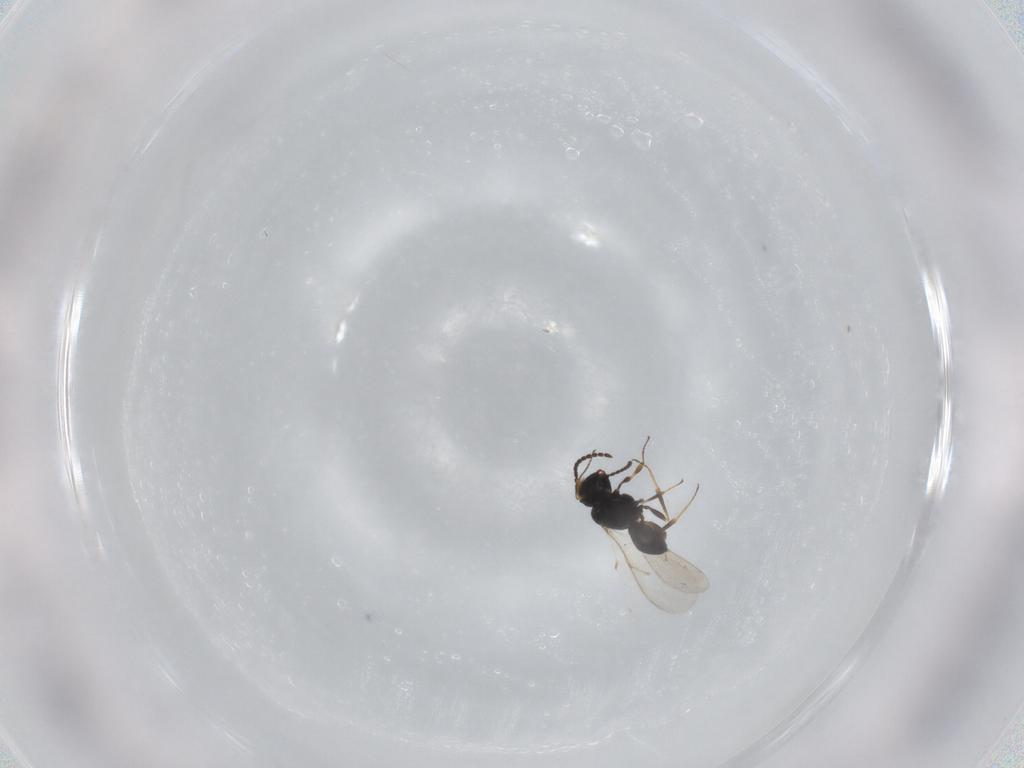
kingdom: Animalia
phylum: Arthropoda
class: Insecta
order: Hymenoptera
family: Scelionidae
